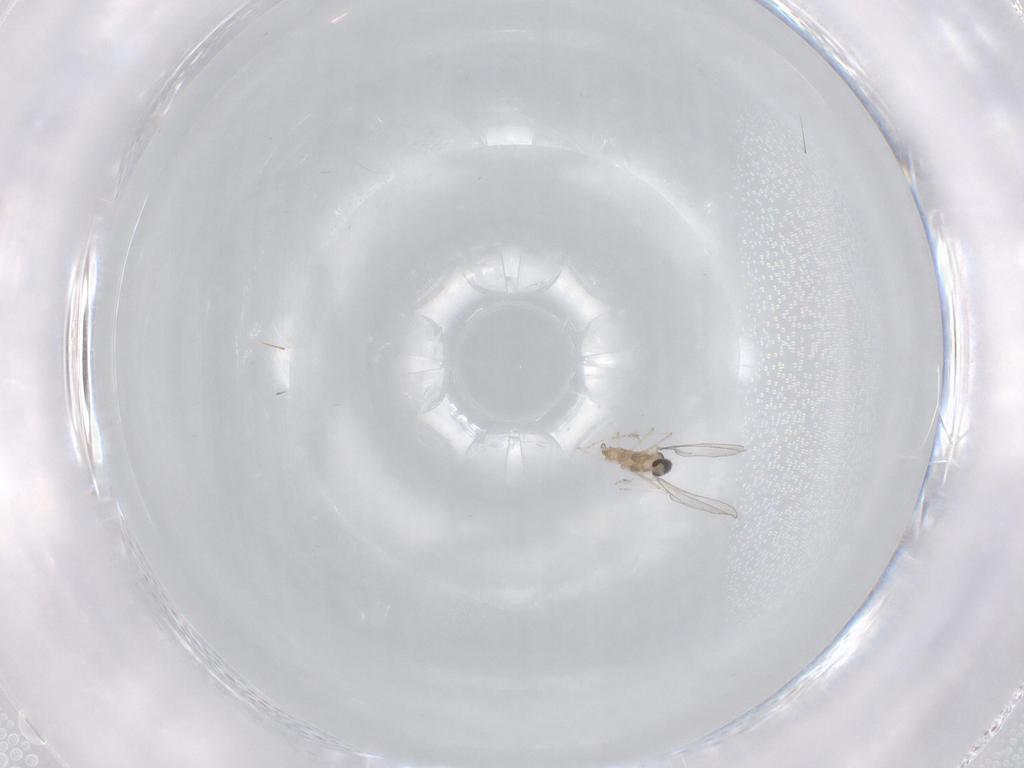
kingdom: Animalia
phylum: Arthropoda
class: Insecta
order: Diptera
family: Cecidomyiidae
